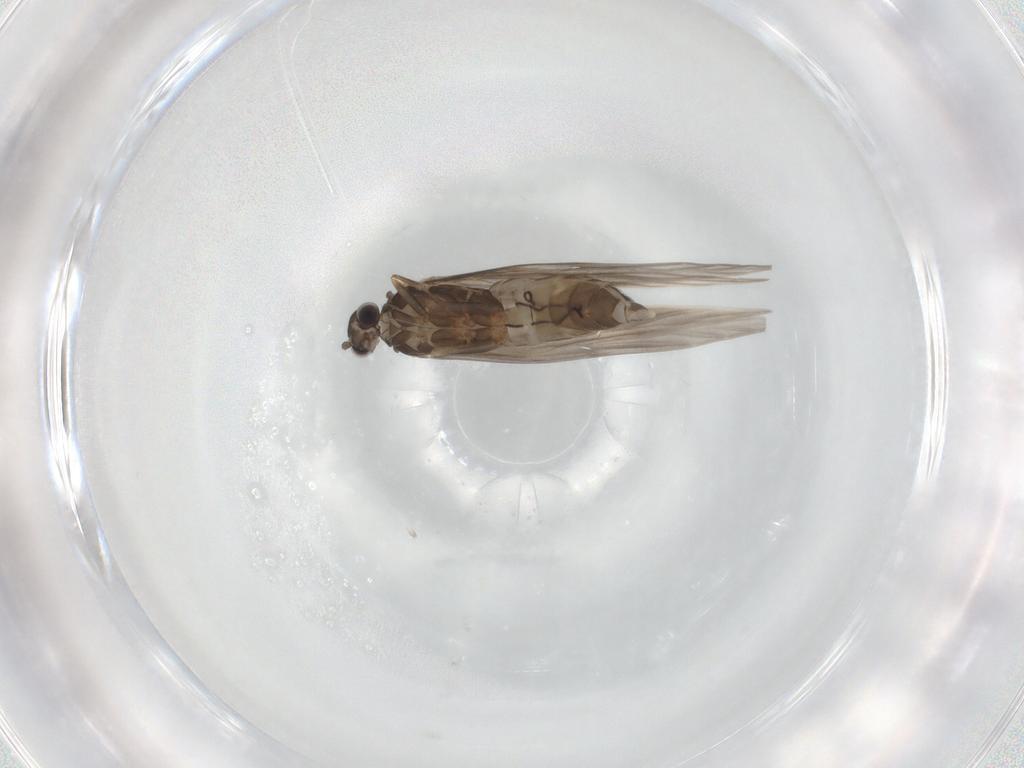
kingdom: Animalia
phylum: Arthropoda
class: Insecta
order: Trichoptera
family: Hydroptilidae
